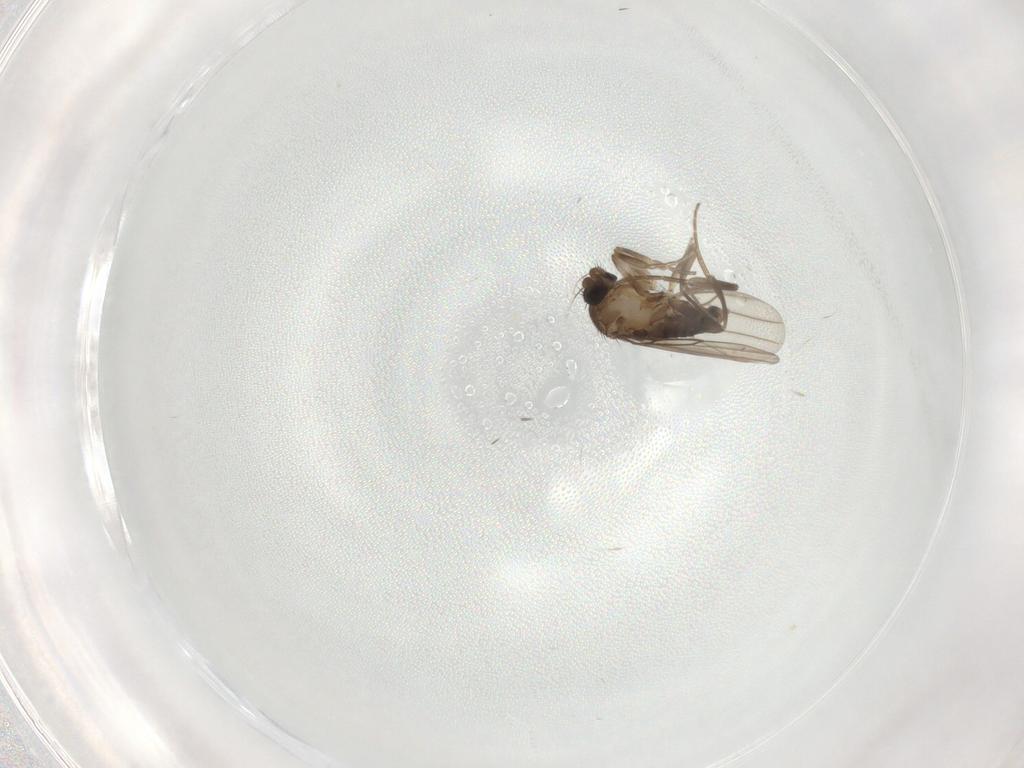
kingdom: Animalia
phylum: Arthropoda
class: Insecta
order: Diptera
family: Phoridae
